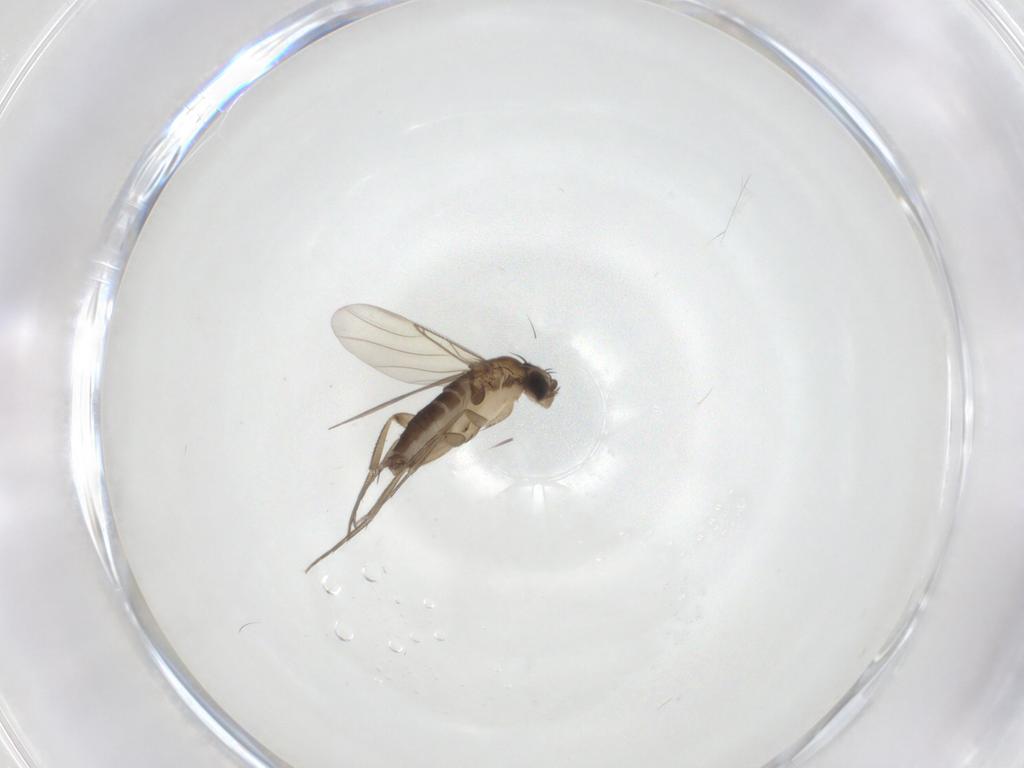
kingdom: Animalia
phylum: Arthropoda
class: Insecta
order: Diptera
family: Phoridae
